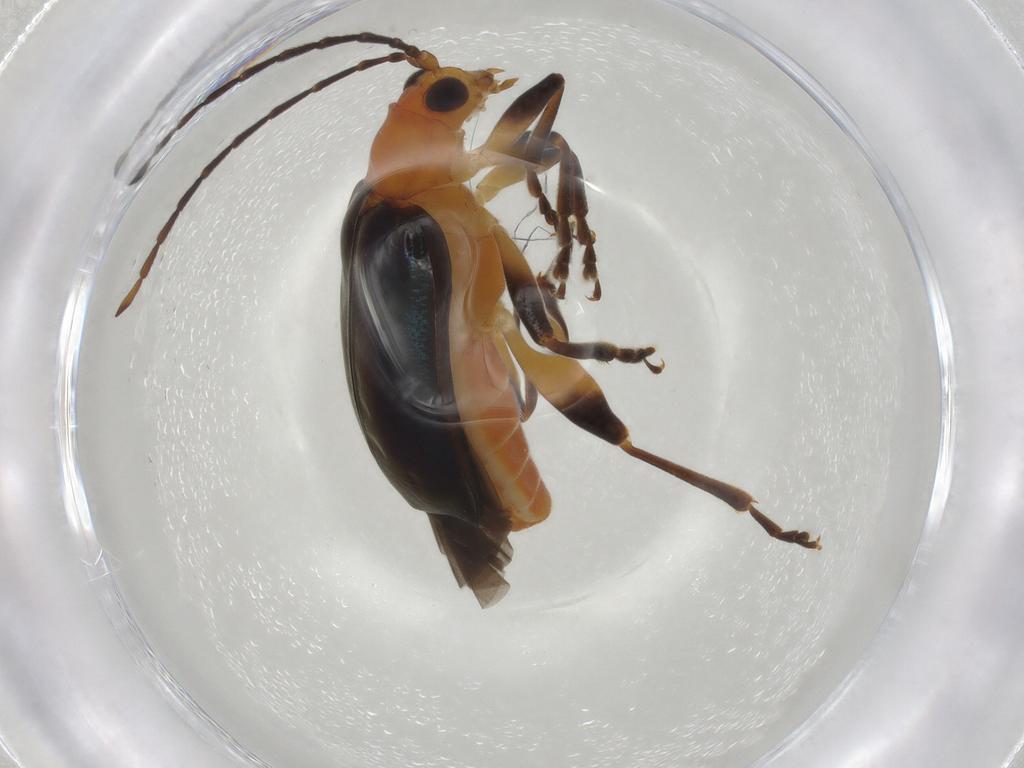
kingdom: Animalia
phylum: Arthropoda
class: Insecta
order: Coleoptera
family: Chrysomelidae
